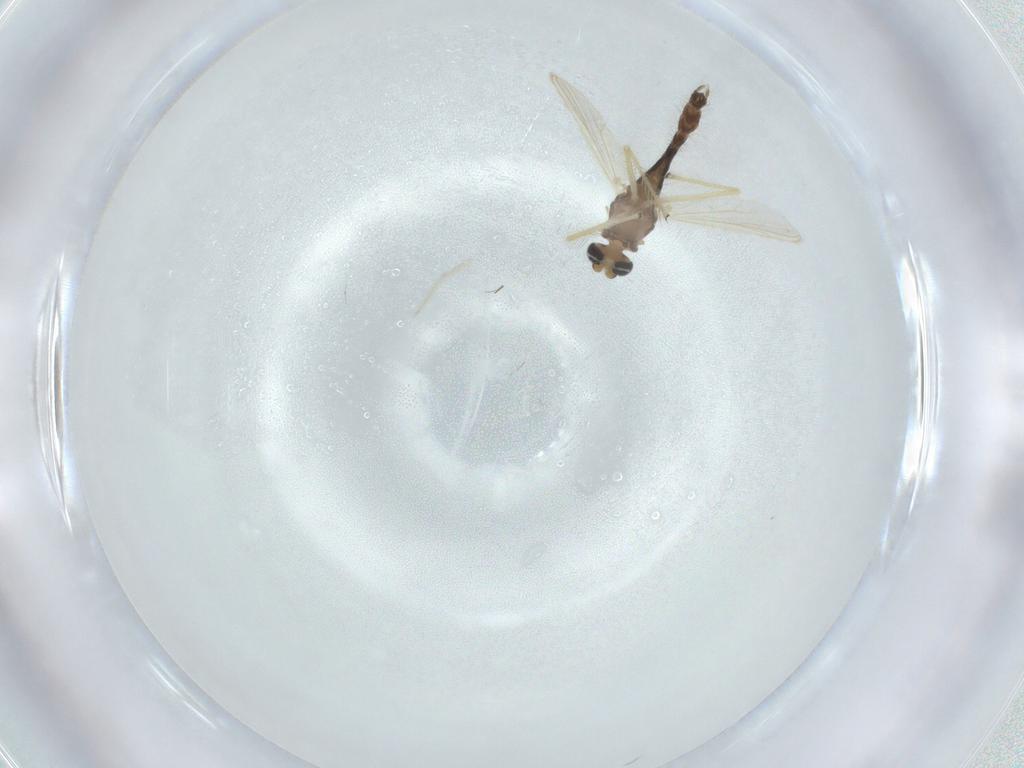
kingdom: Animalia
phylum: Arthropoda
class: Insecta
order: Diptera
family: Chironomidae
